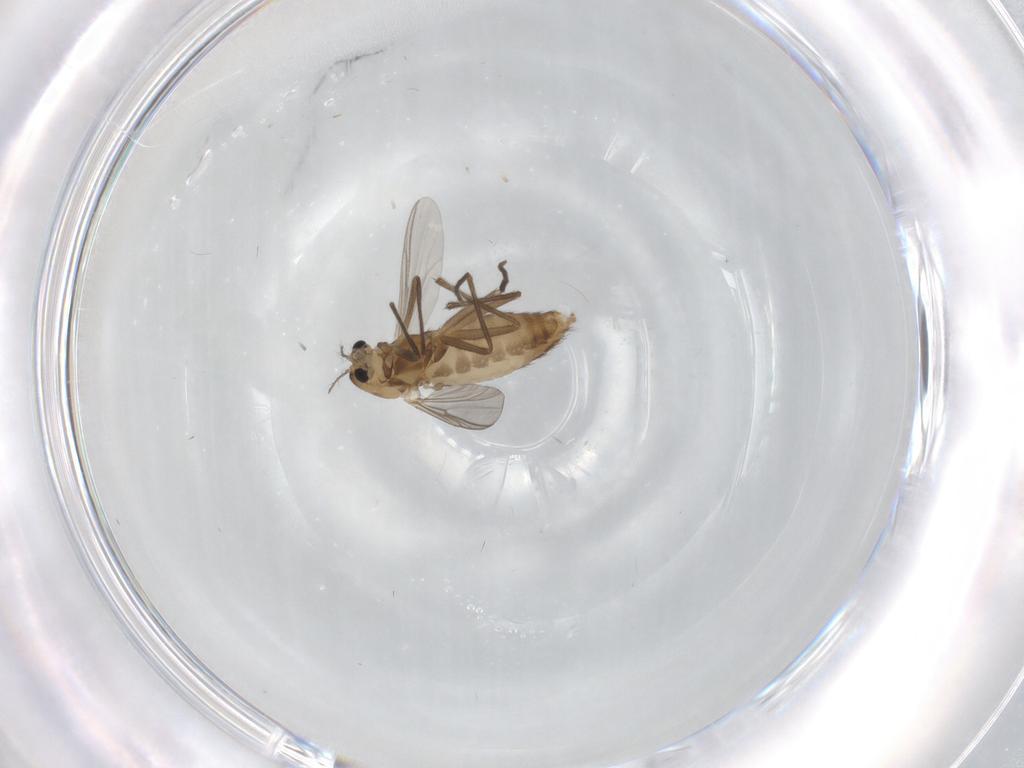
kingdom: Animalia
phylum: Arthropoda
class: Insecta
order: Diptera
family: Chironomidae
